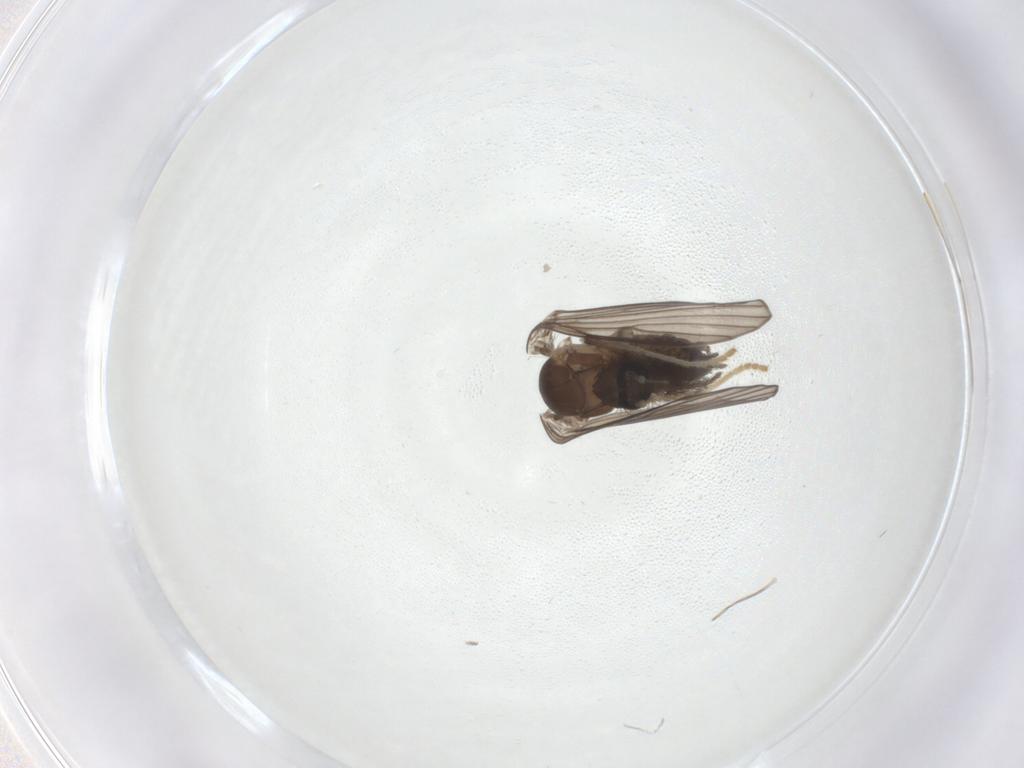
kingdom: Animalia
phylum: Arthropoda
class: Insecta
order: Diptera
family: Psychodidae
